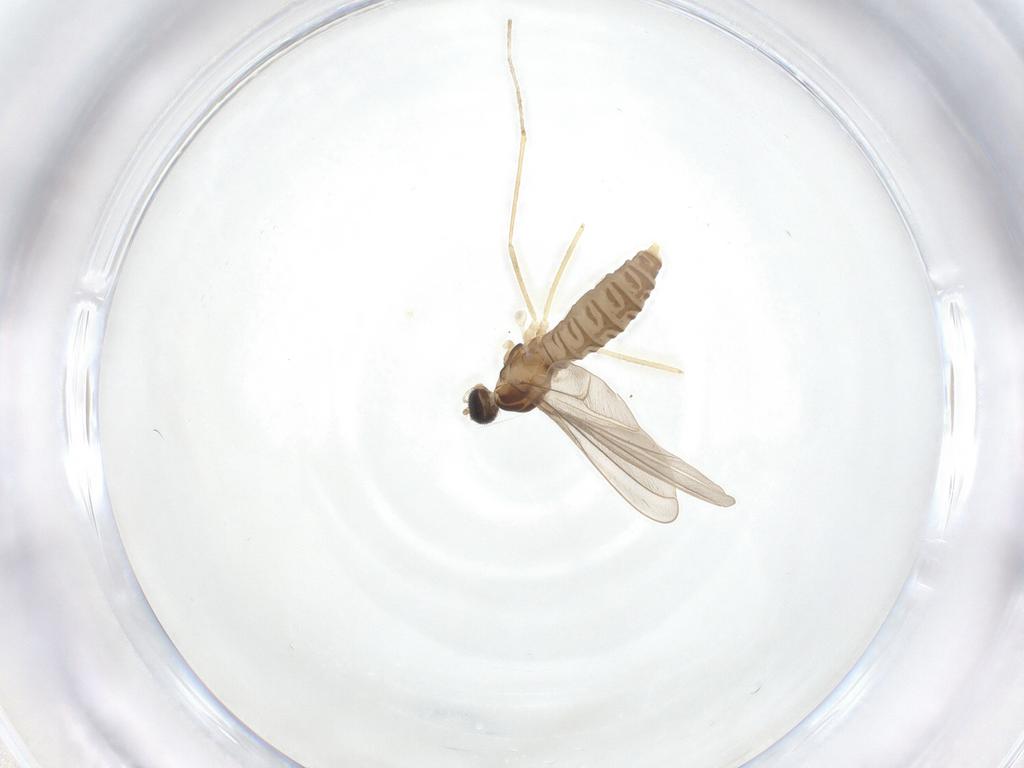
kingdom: Animalia
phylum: Arthropoda
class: Insecta
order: Diptera
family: Cecidomyiidae
